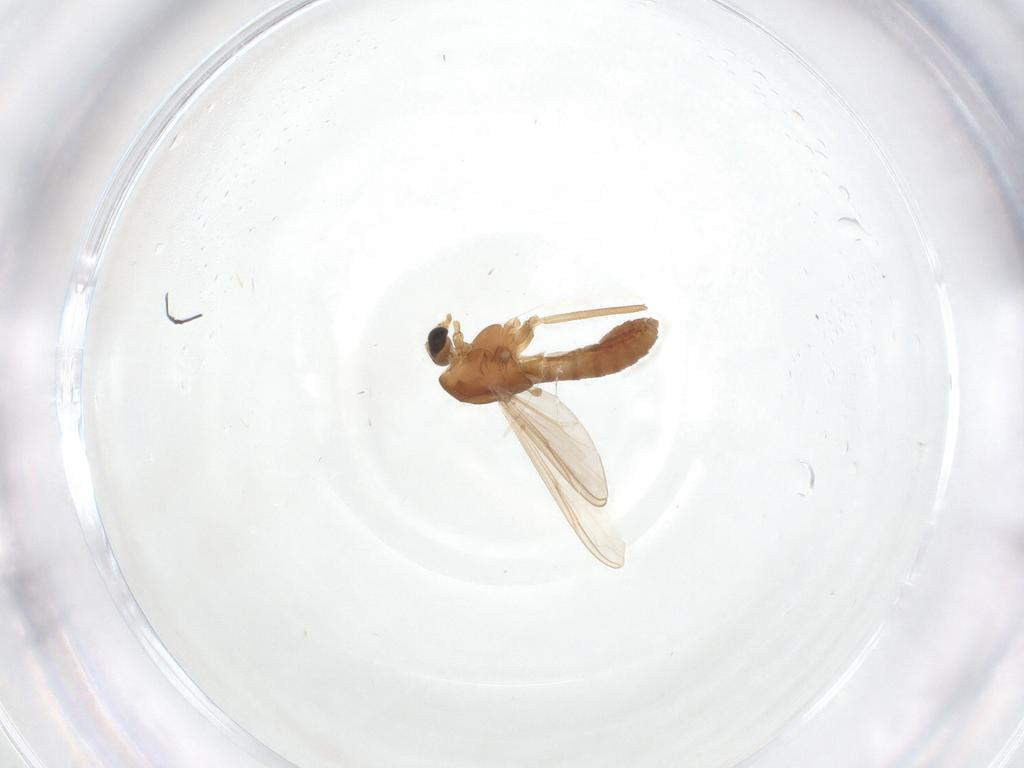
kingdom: Animalia
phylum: Arthropoda
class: Insecta
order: Diptera
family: Chironomidae
